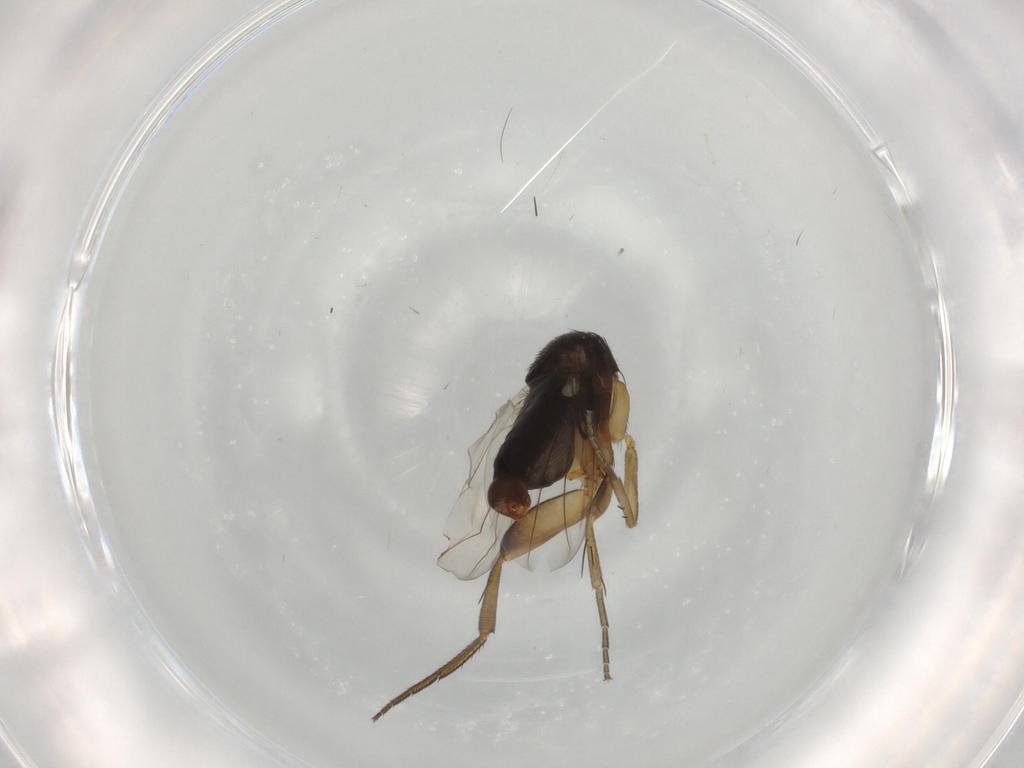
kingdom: Animalia
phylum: Arthropoda
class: Insecta
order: Diptera
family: Phoridae
